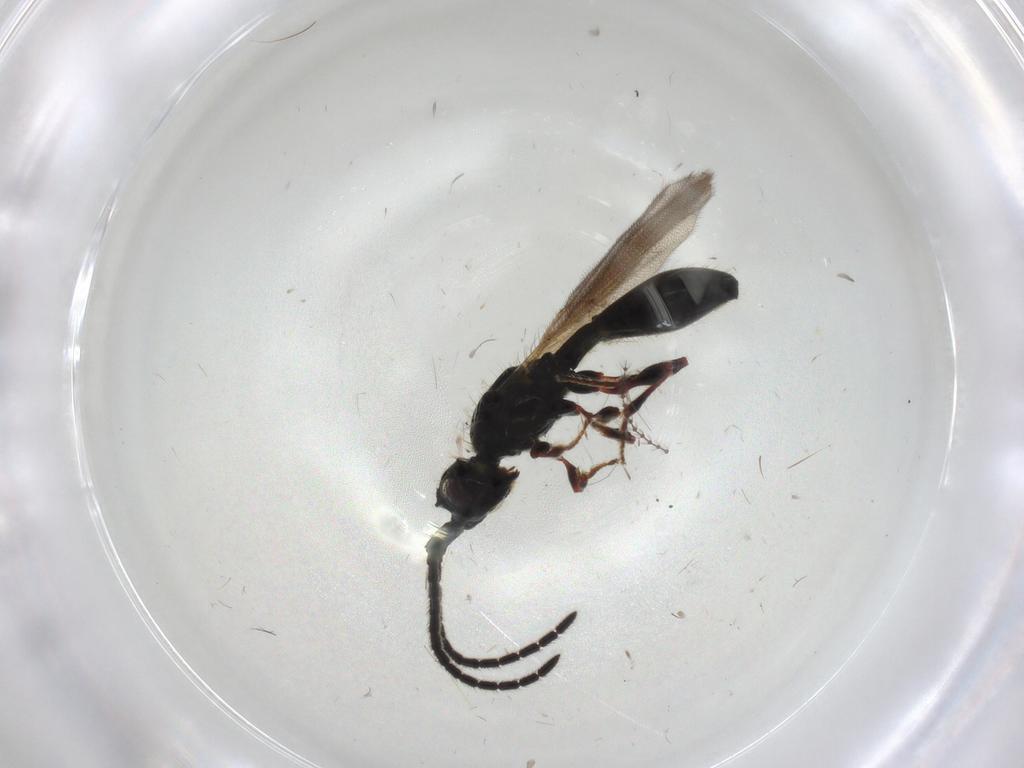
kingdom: Animalia
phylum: Arthropoda
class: Insecta
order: Hymenoptera
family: Diapriidae
